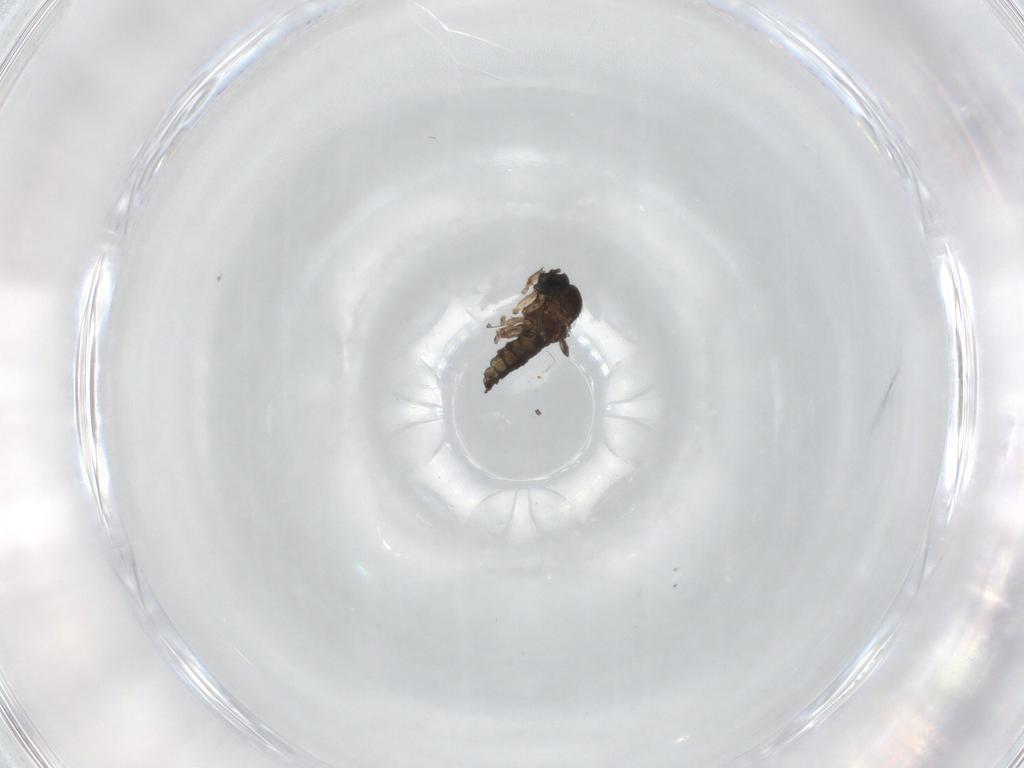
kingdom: Animalia
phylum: Arthropoda
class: Insecta
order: Diptera
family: Sciaridae
